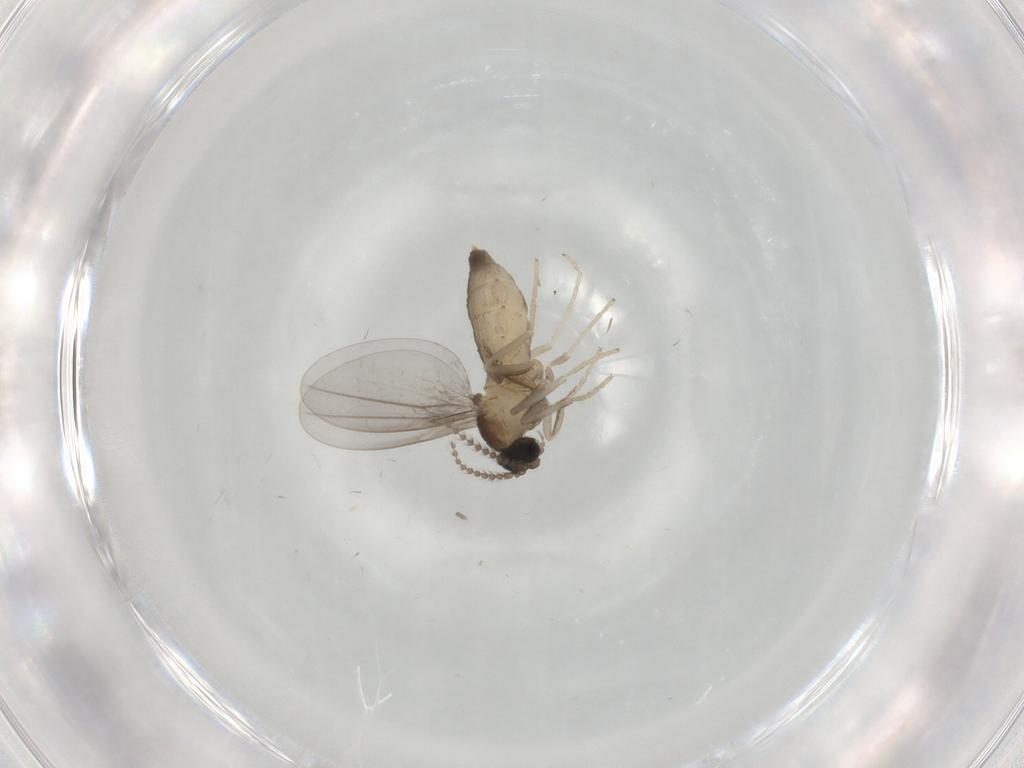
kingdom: Animalia
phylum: Arthropoda
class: Insecta
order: Diptera
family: Cecidomyiidae
